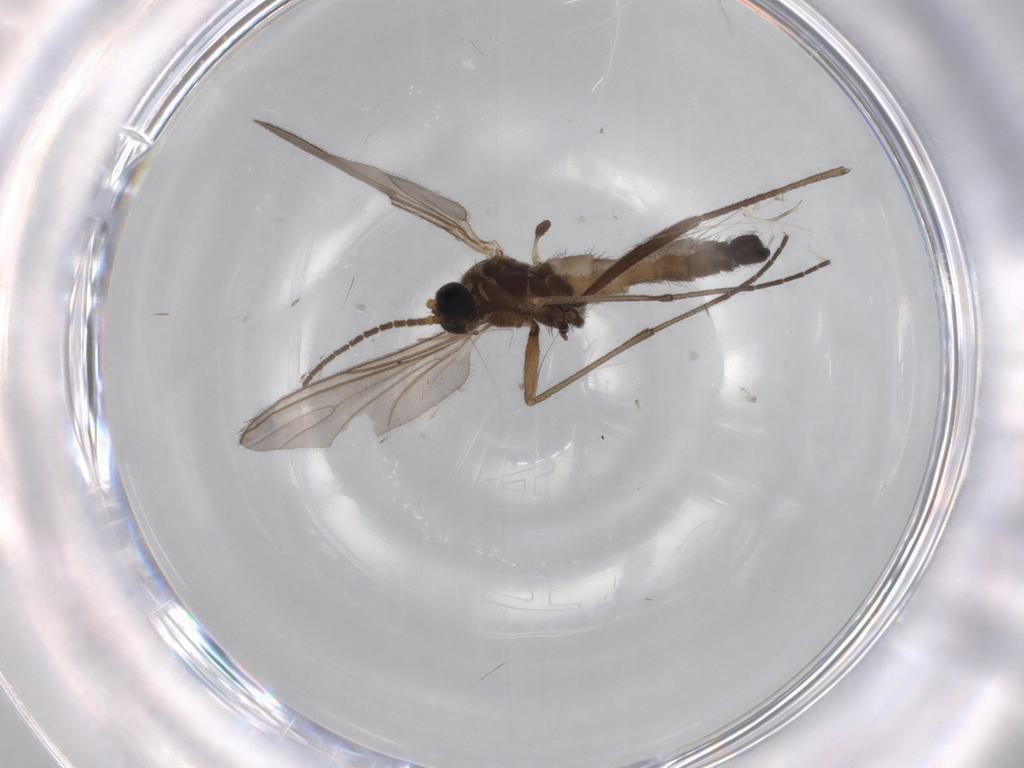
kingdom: Animalia
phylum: Arthropoda
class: Insecta
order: Diptera
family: Sciaridae
